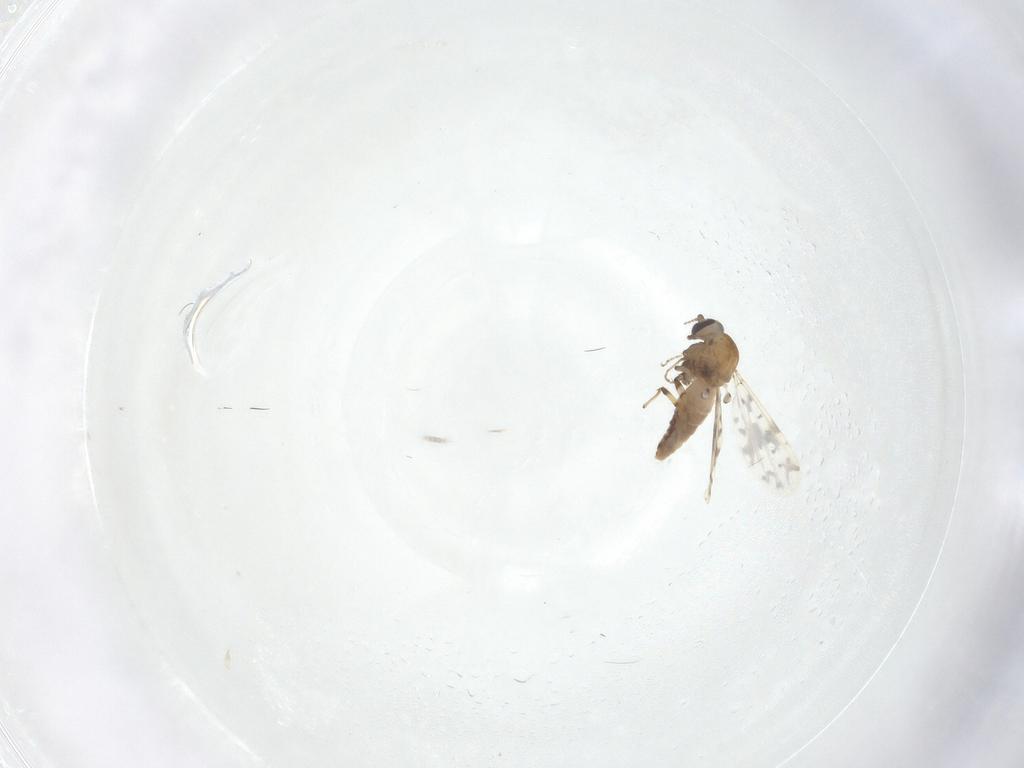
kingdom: Animalia
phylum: Arthropoda
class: Insecta
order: Diptera
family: Ceratopogonidae
